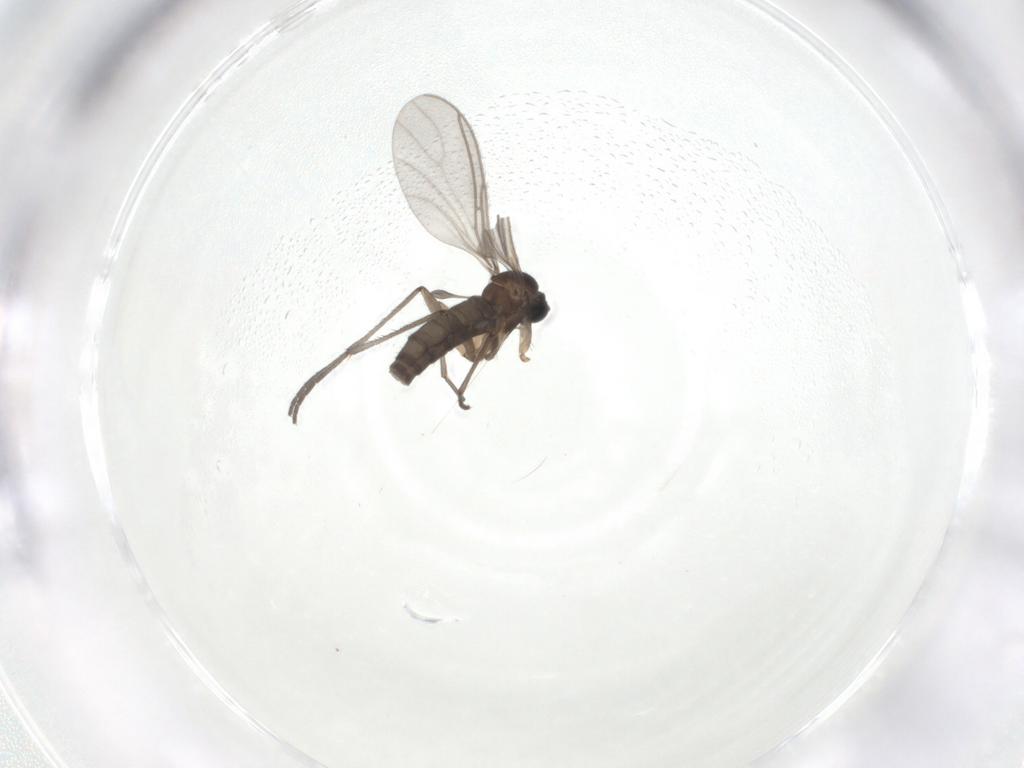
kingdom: Animalia
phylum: Arthropoda
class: Insecta
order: Diptera
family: Sciaridae
